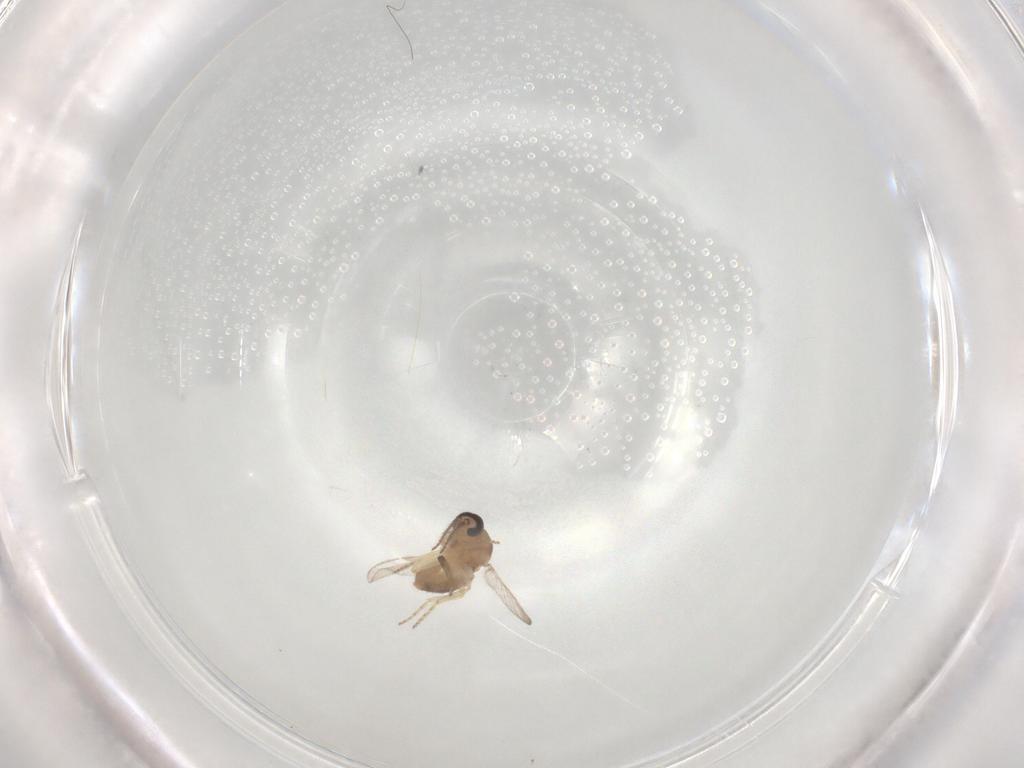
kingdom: Animalia
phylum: Arthropoda
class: Insecta
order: Diptera
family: Ceratopogonidae
